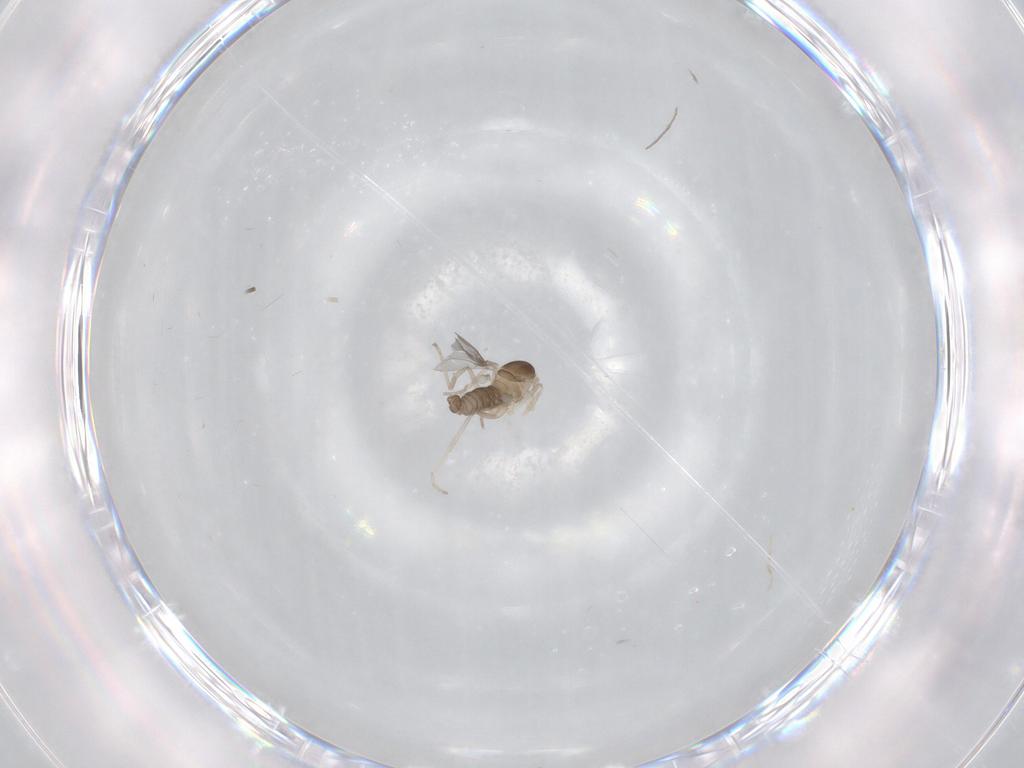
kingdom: Animalia
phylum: Arthropoda
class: Insecta
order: Diptera
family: Cecidomyiidae
